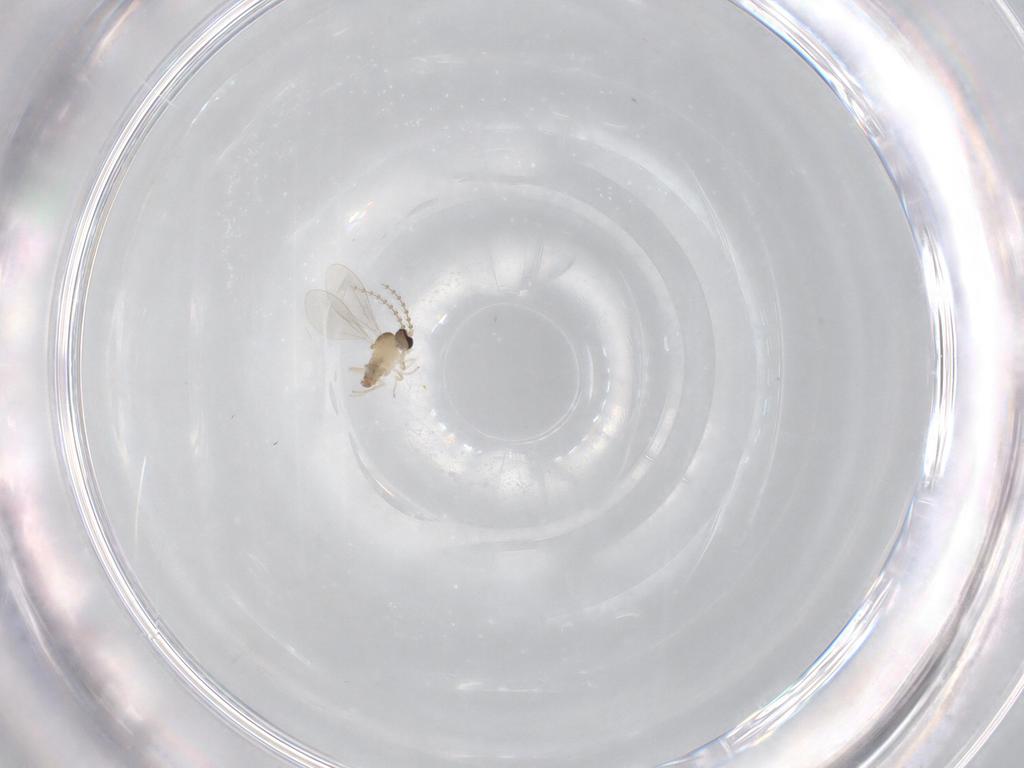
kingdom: Animalia
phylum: Arthropoda
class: Insecta
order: Diptera
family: Cecidomyiidae
